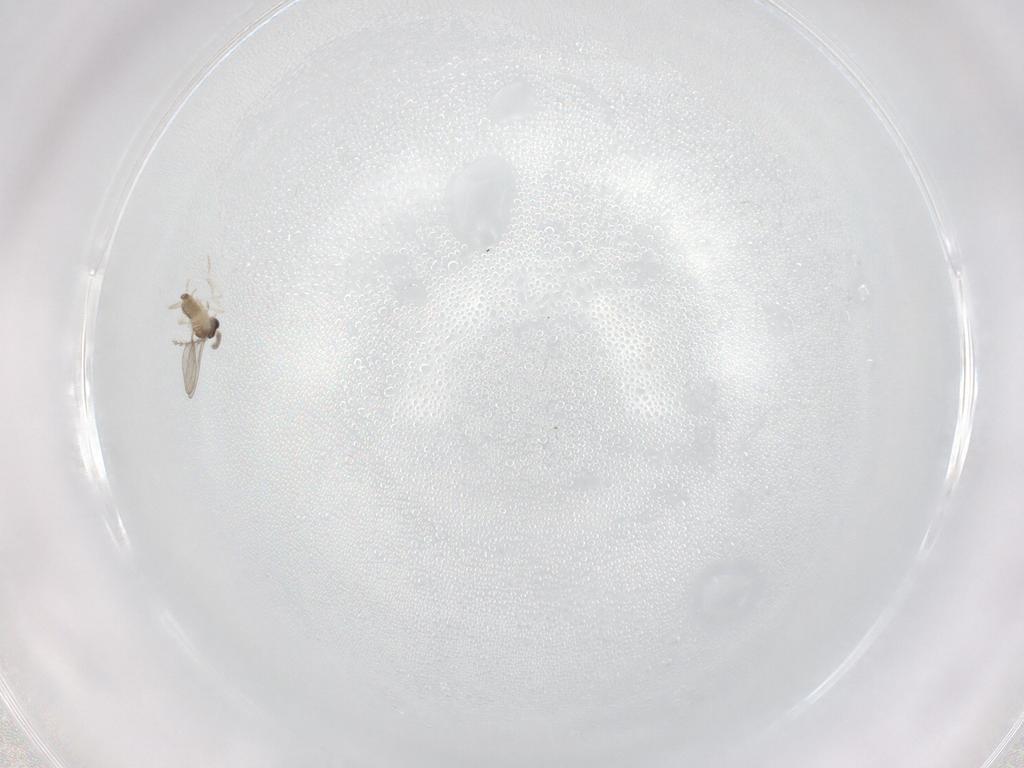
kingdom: Animalia
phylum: Arthropoda
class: Insecta
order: Diptera
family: Cecidomyiidae
